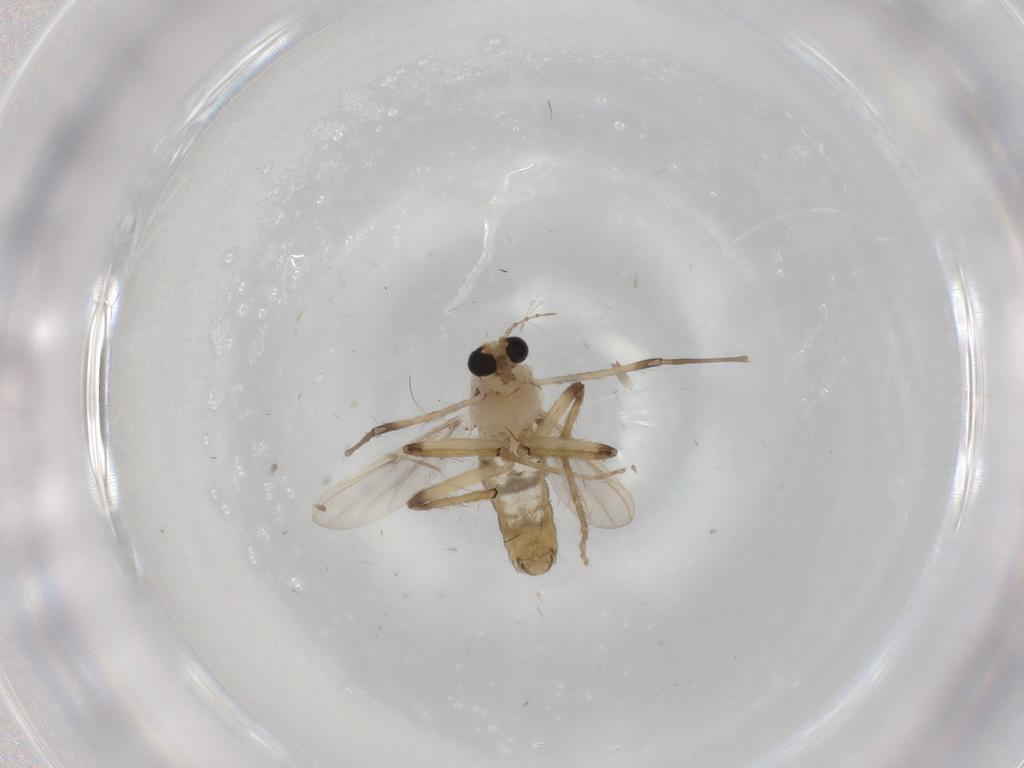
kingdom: Animalia
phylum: Arthropoda
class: Insecta
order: Diptera
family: Chironomidae
